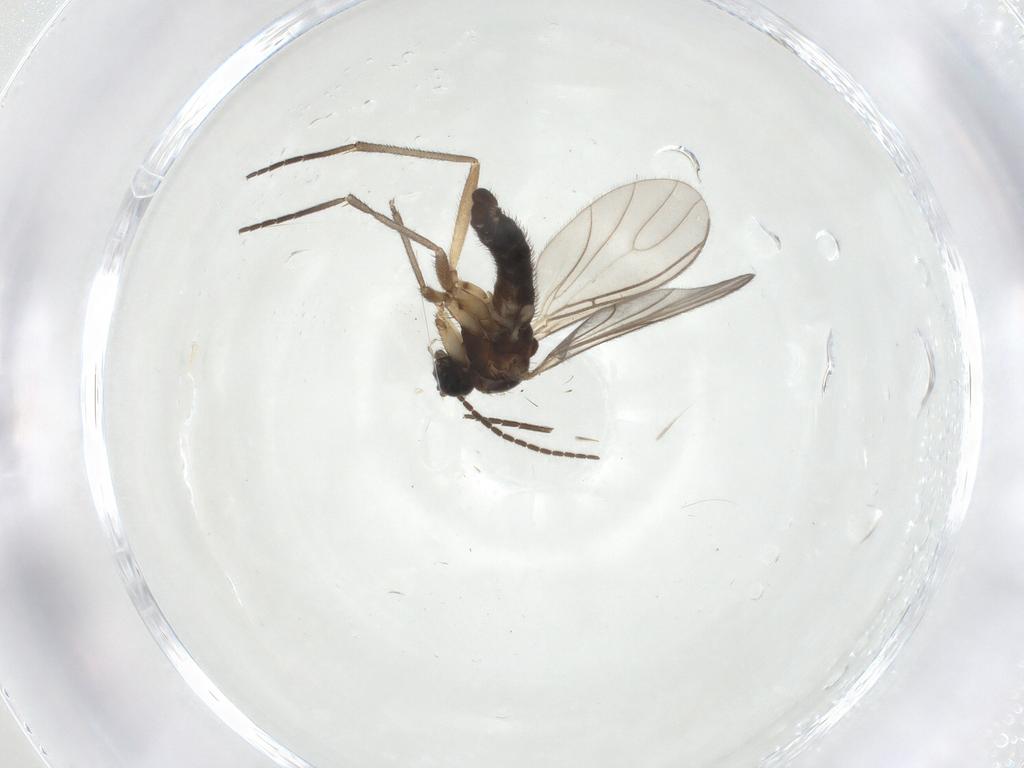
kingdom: Animalia
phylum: Arthropoda
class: Insecta
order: Diptera
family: Sciaridae
